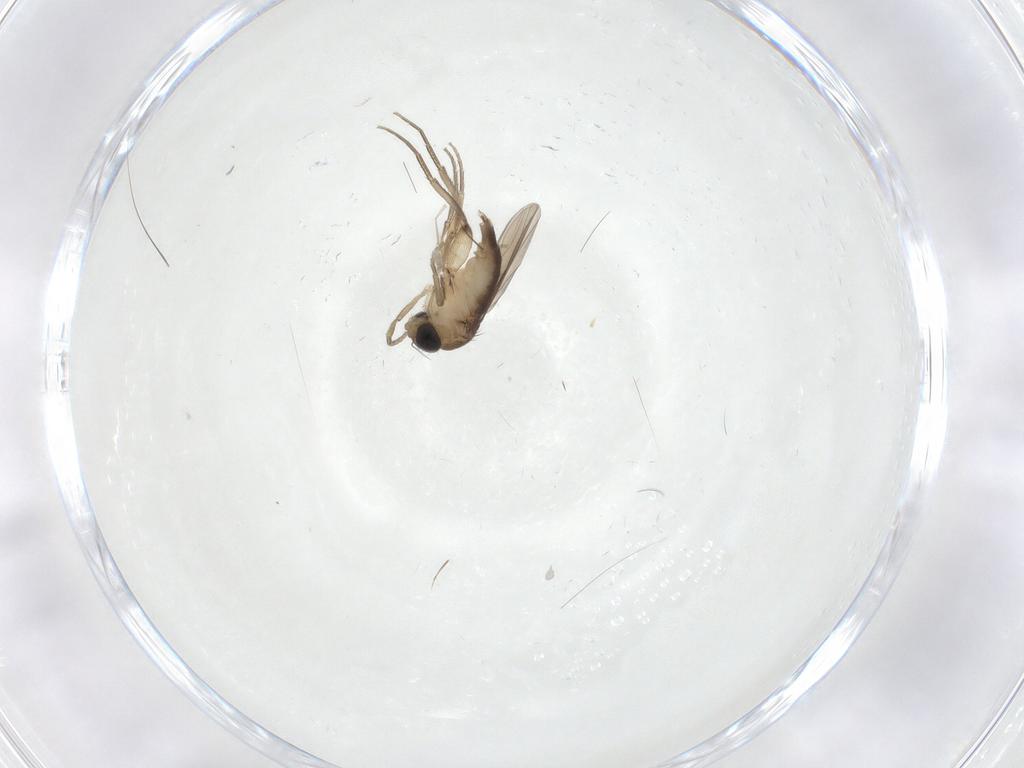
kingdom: Animalia
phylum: Arthropoda
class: Insecta
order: Diptera
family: Phoridae
